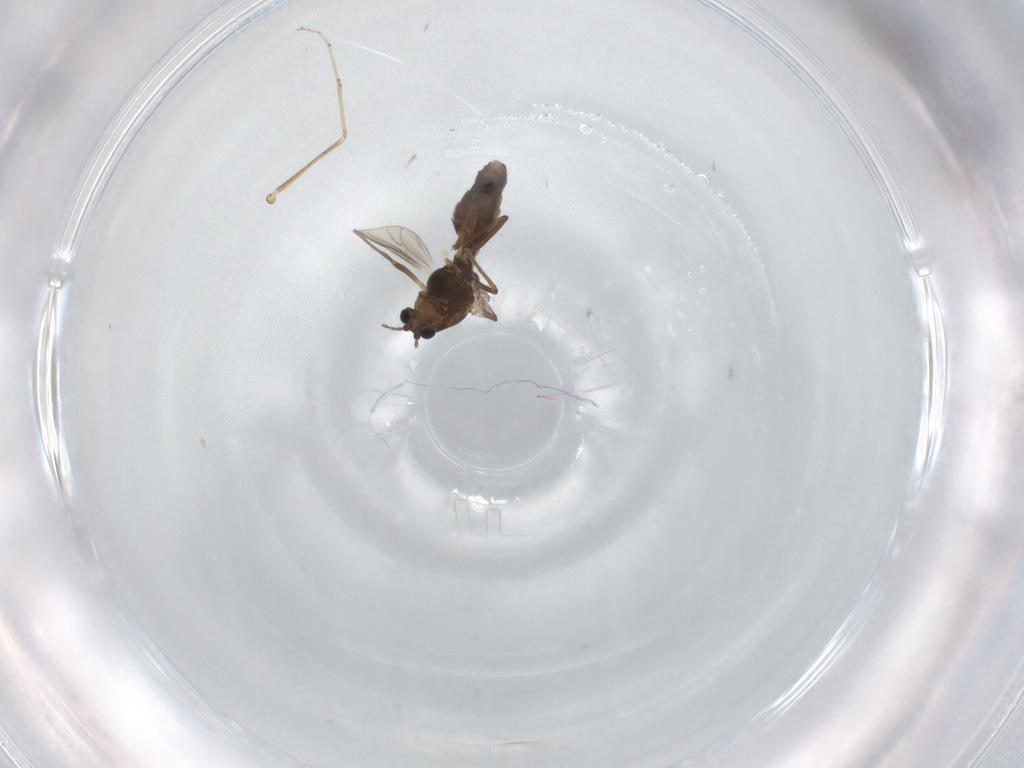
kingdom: Animalia
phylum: Arthropoda
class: Insecta
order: Diptera
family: Chironomidae
